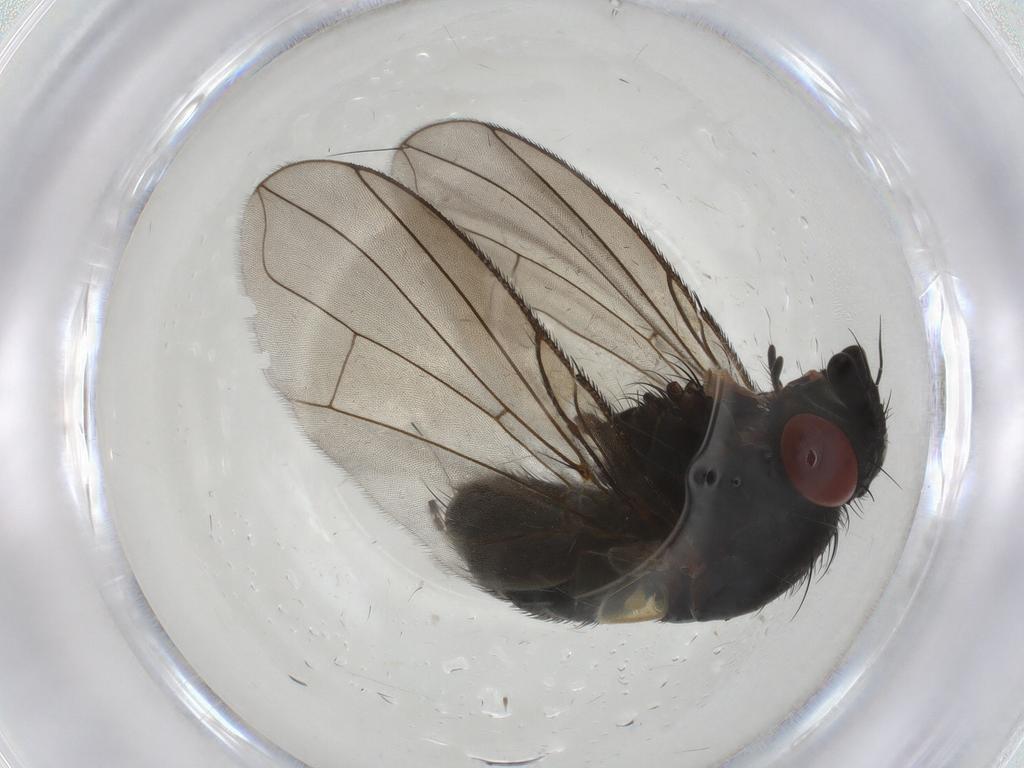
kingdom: Animalia
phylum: Arthropoda
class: Insecta
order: Diptera
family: Tachinidae
